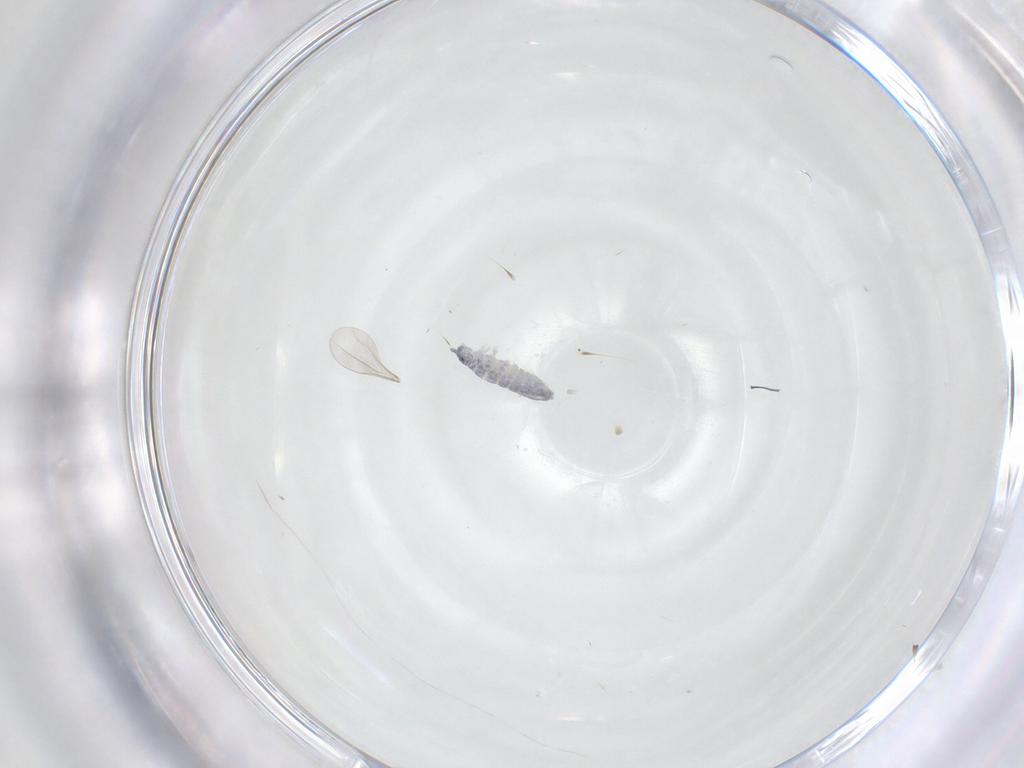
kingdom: Animalia
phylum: Arthropoda
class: Collembola
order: Poduromorpha
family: Hypogastruridae
